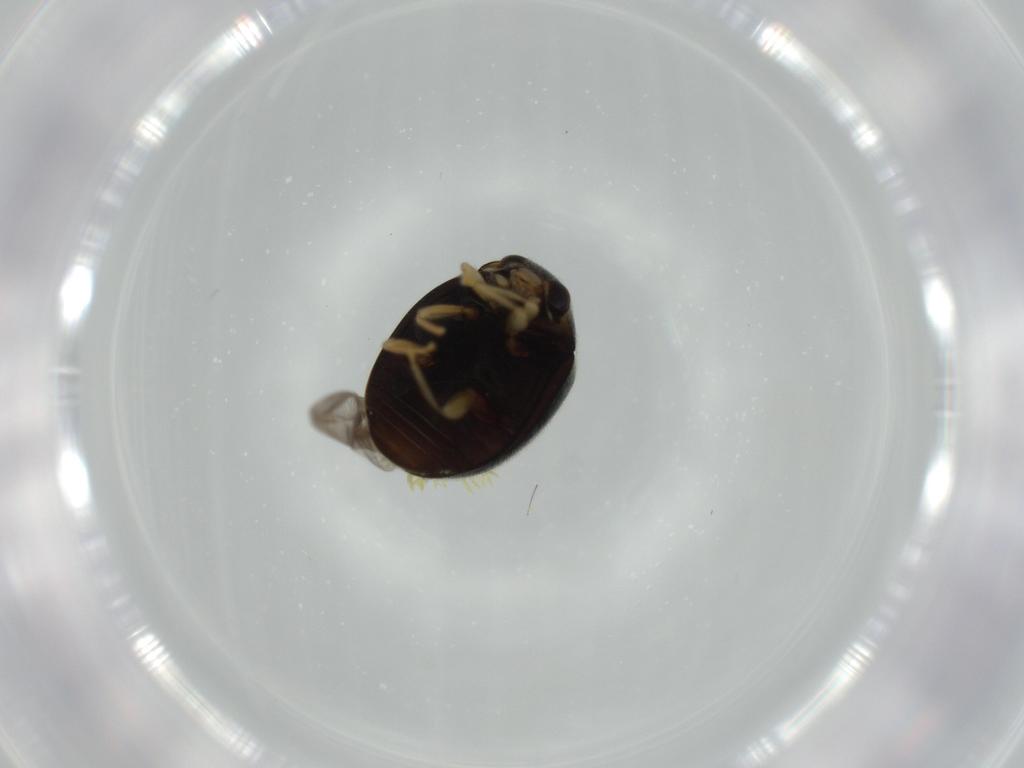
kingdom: Animalia
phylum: Arthropoda
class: Insecta
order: Coleoptera
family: Coccinellidae
